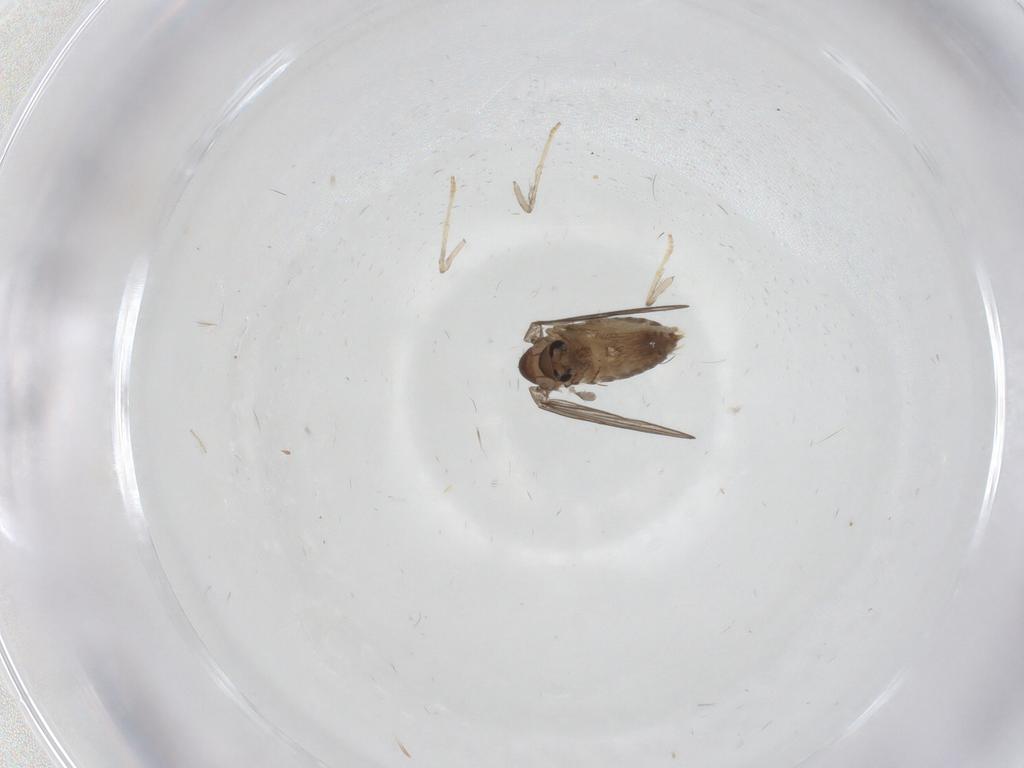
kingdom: Animalia
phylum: Arthropoda
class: Insecta
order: Diptera
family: Psychodidae
